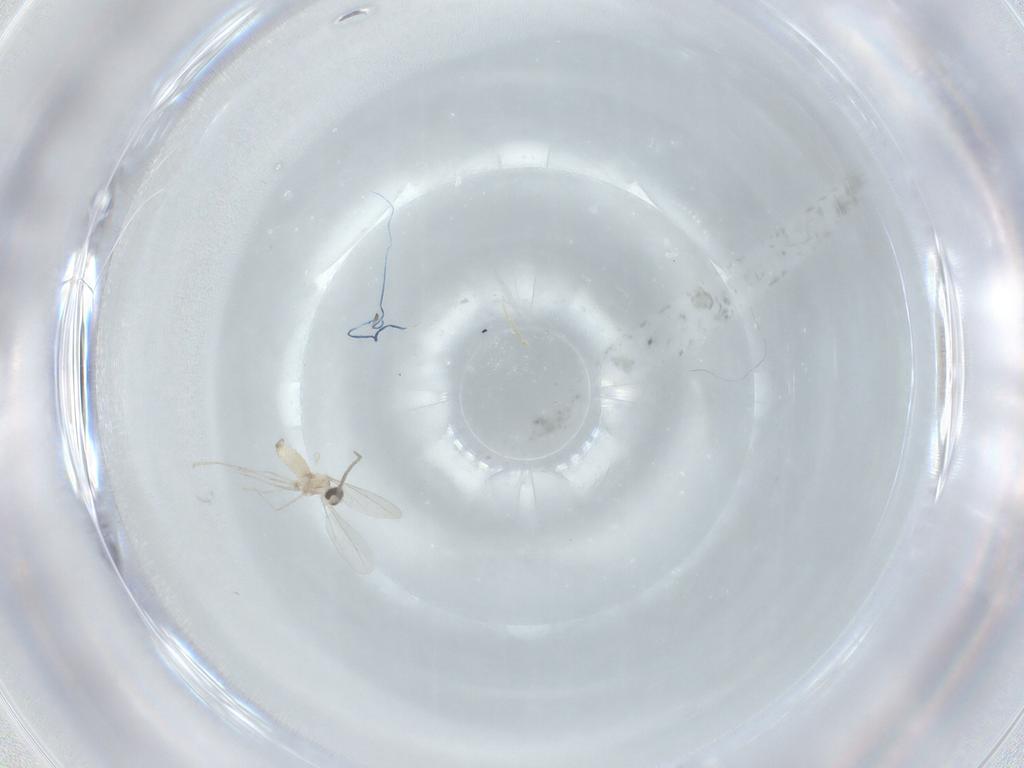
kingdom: Animalia
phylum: Arthropoda
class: Insecta
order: Diptera
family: Cecidomyiidae
